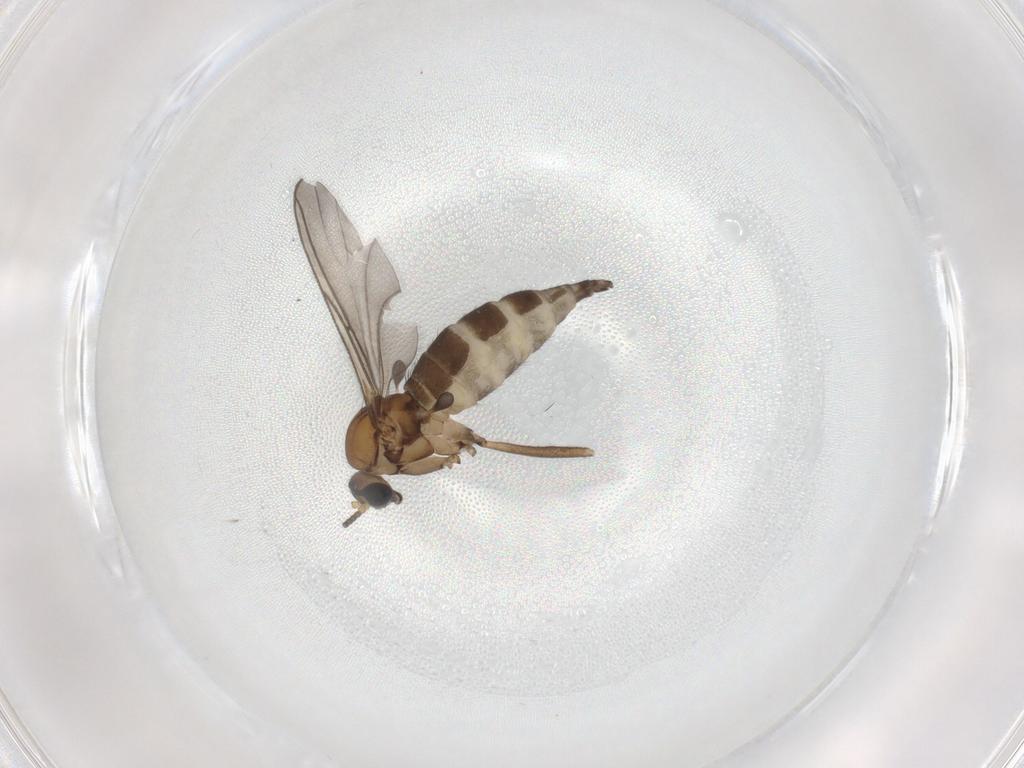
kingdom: Animalia
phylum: Arthropoda
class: Insecta
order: Diptera
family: Sciaridae
